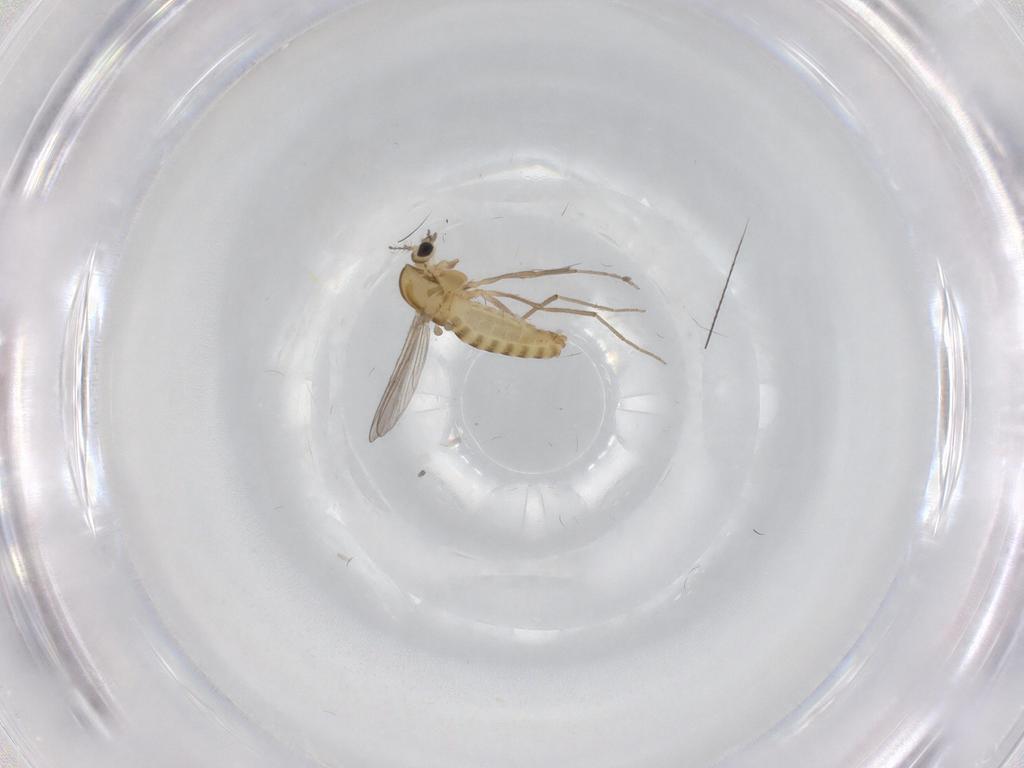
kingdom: Animalia
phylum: Arthropoda
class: Insecta
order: Diptera
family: Chironomidae
